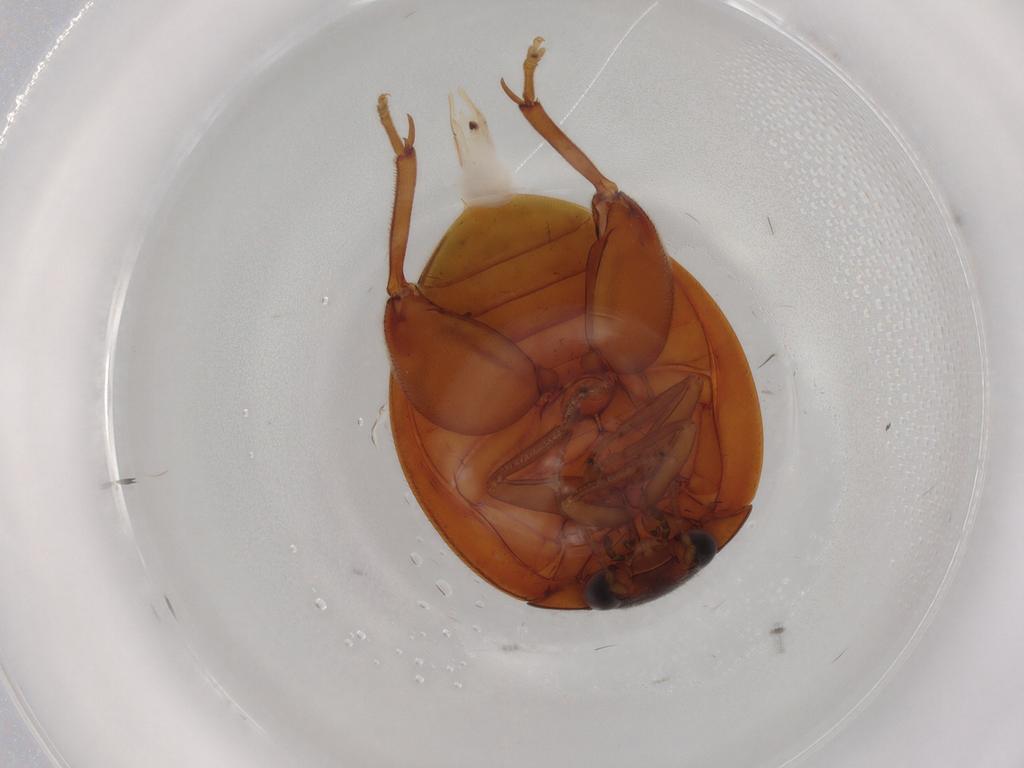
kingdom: Animalia
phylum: Arthropoda
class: Insecta
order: Coleoptera
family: Scirtidae
